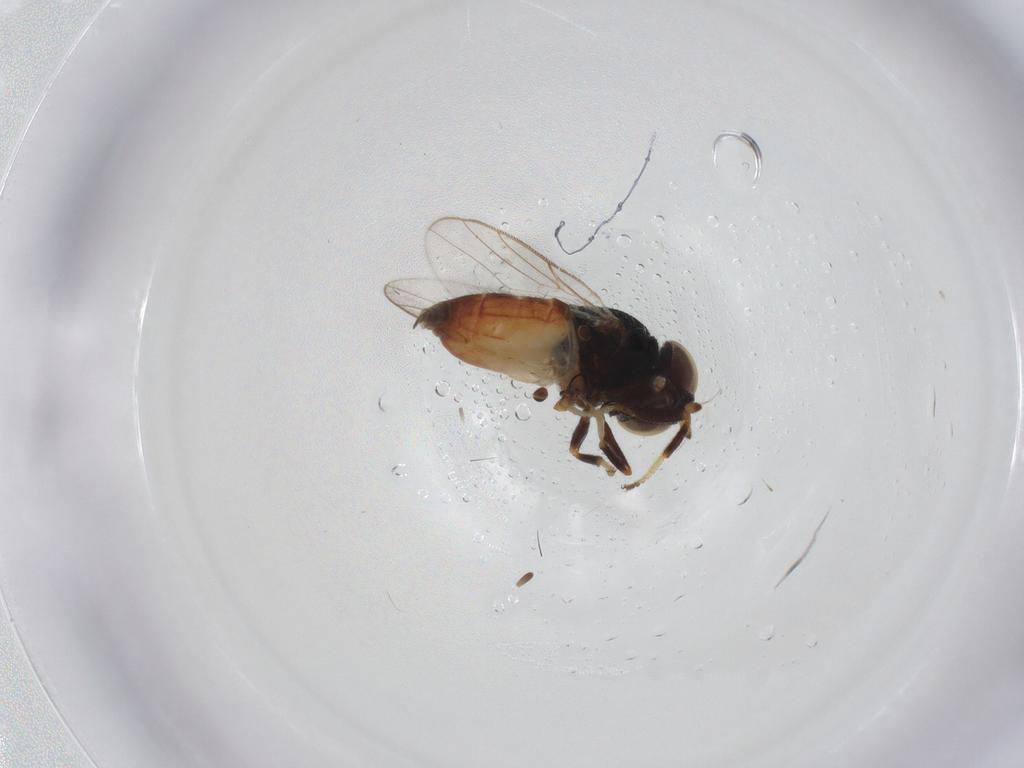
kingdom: Animalia
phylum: Arthropoda
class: Insecta
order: Diptera
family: Chloropidae
